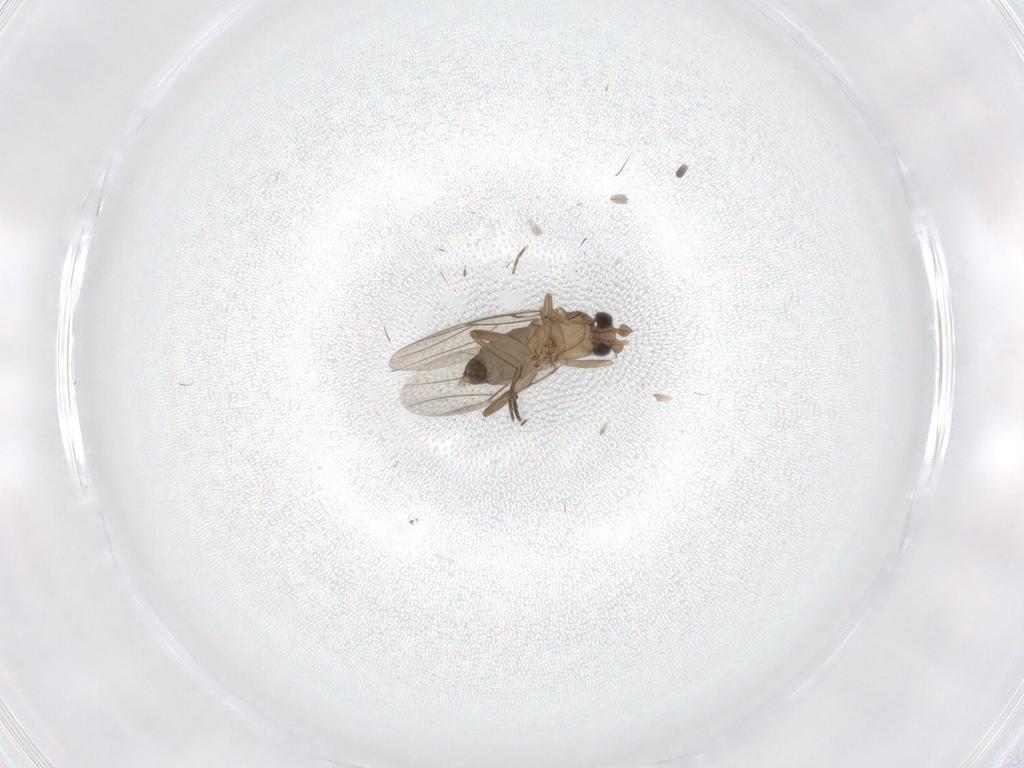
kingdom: Animalia
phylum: Arthropoda
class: Insecta
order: Diptera
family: Phoridae
